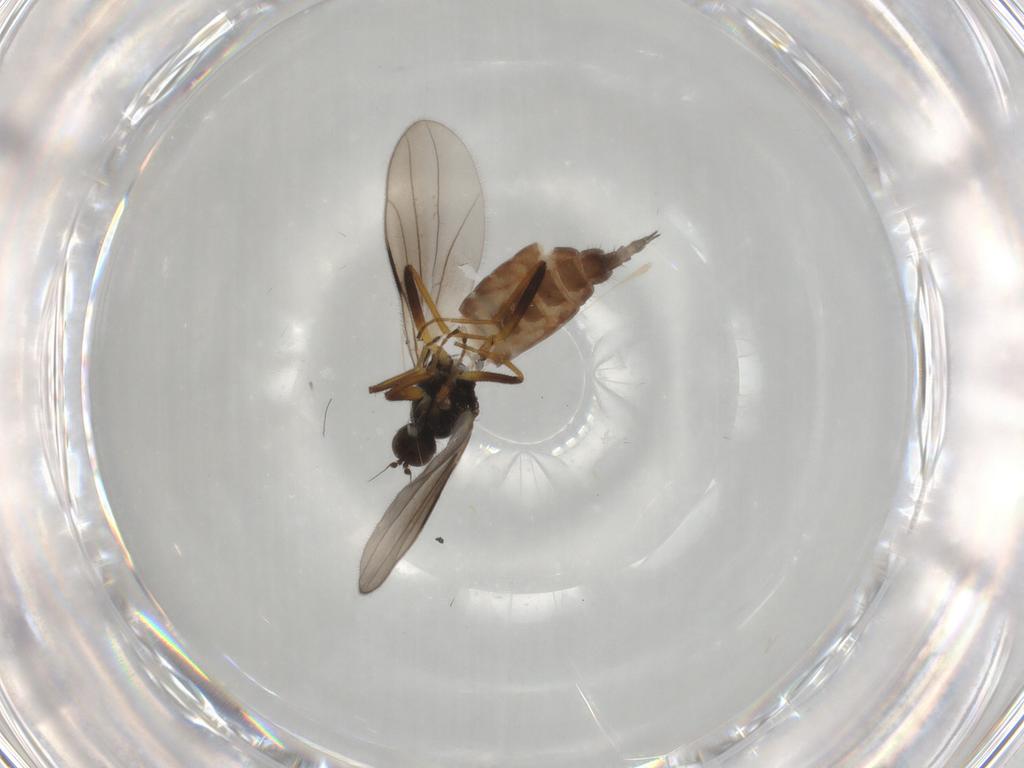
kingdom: Animalia
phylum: Arthropoda
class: Insecta
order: Diptera
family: Hybotidae
